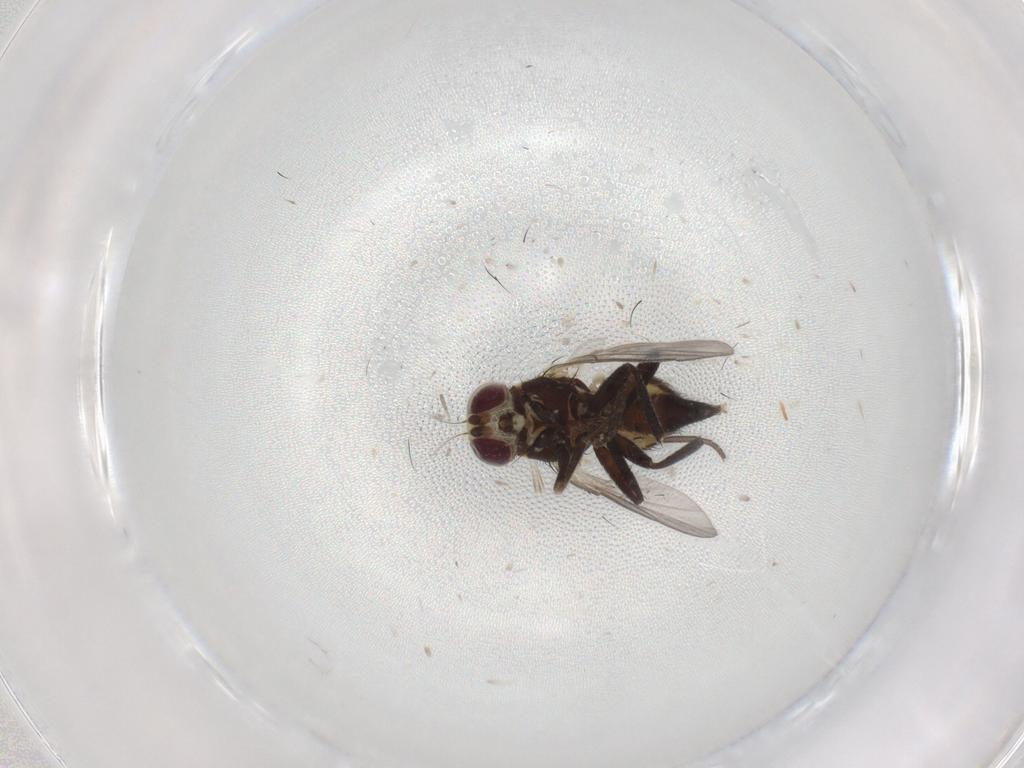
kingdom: Animalia
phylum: Arthropoda
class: Insecta
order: Diptera
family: Agromyzidae
